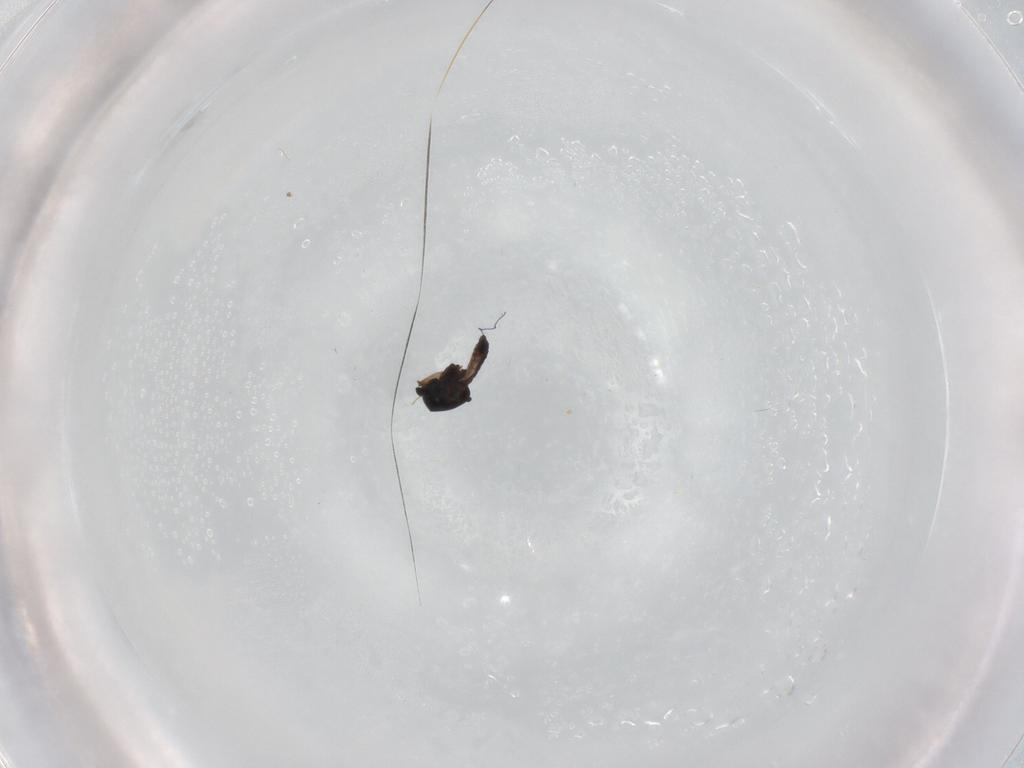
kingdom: Animalia
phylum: Arthropoda
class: Insecta
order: Diptera
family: Ceratopogonidae
